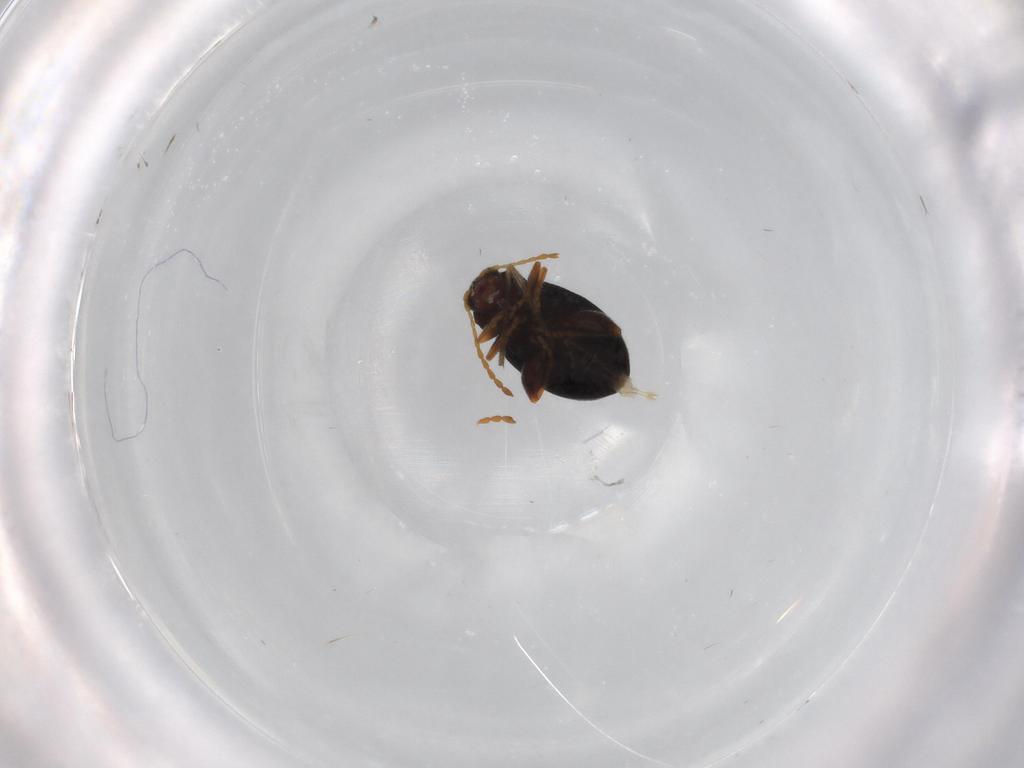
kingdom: Animalia
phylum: Arthropoda
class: Insecta
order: Coleoptera
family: Chrysomelidae
